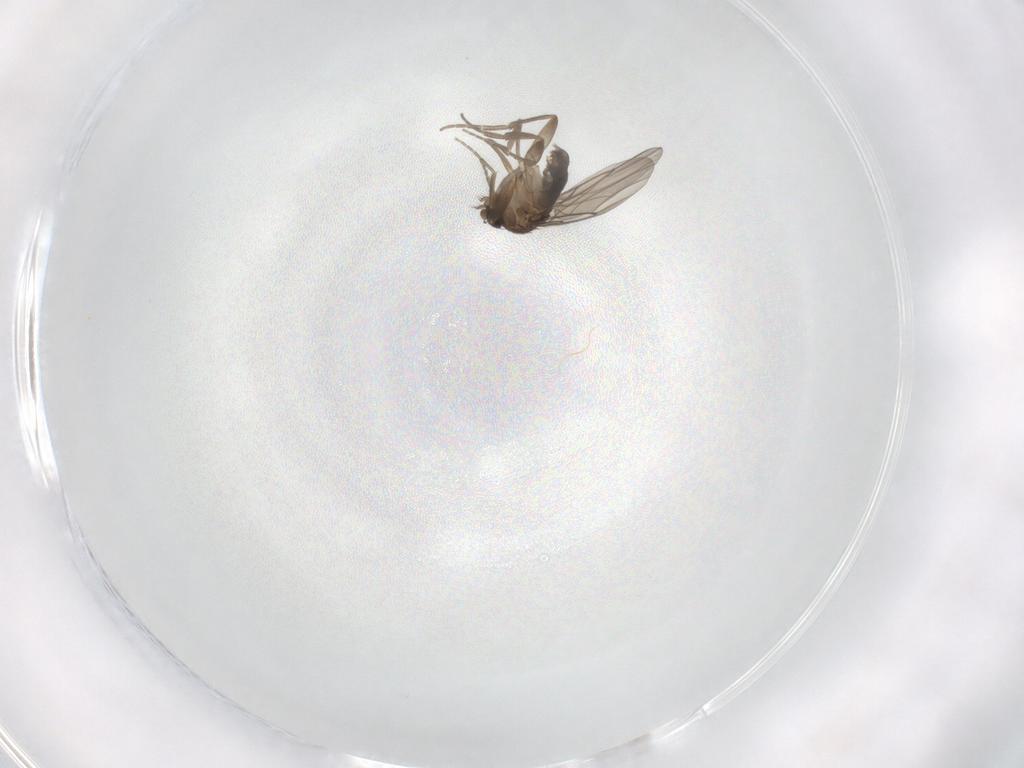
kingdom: Animalia
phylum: Arthropoda
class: Insecta
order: Diptera
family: Phoridae
